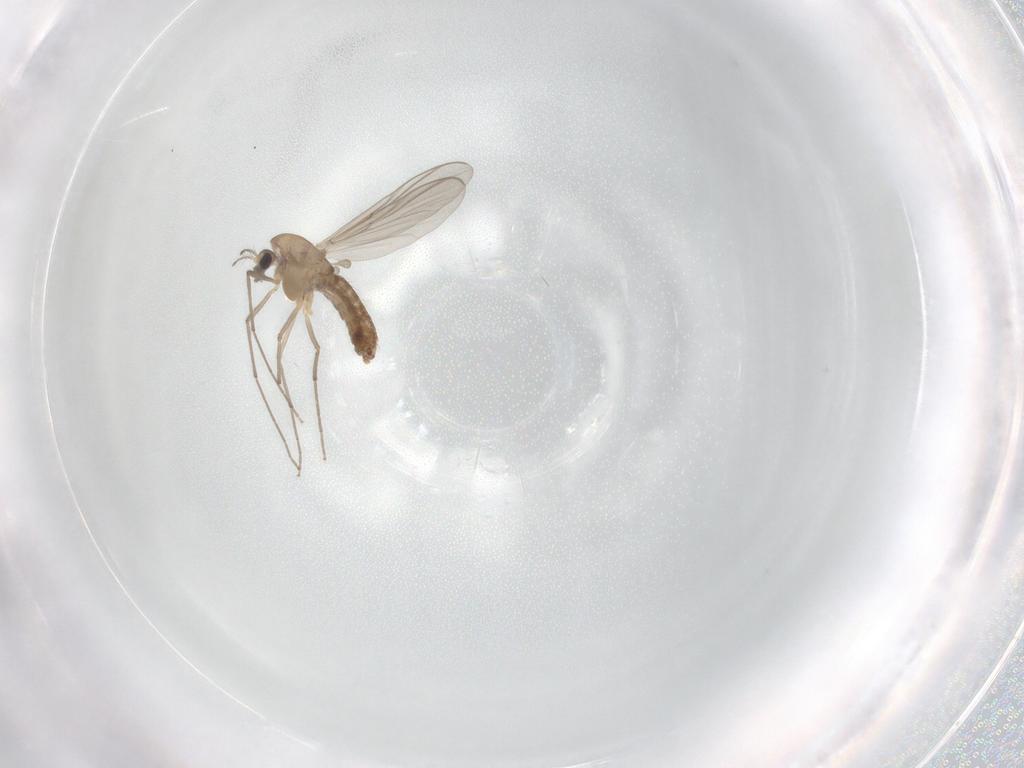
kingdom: Animalia
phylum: Arthropoda
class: Insecta
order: Diptera
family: Chironomidae
